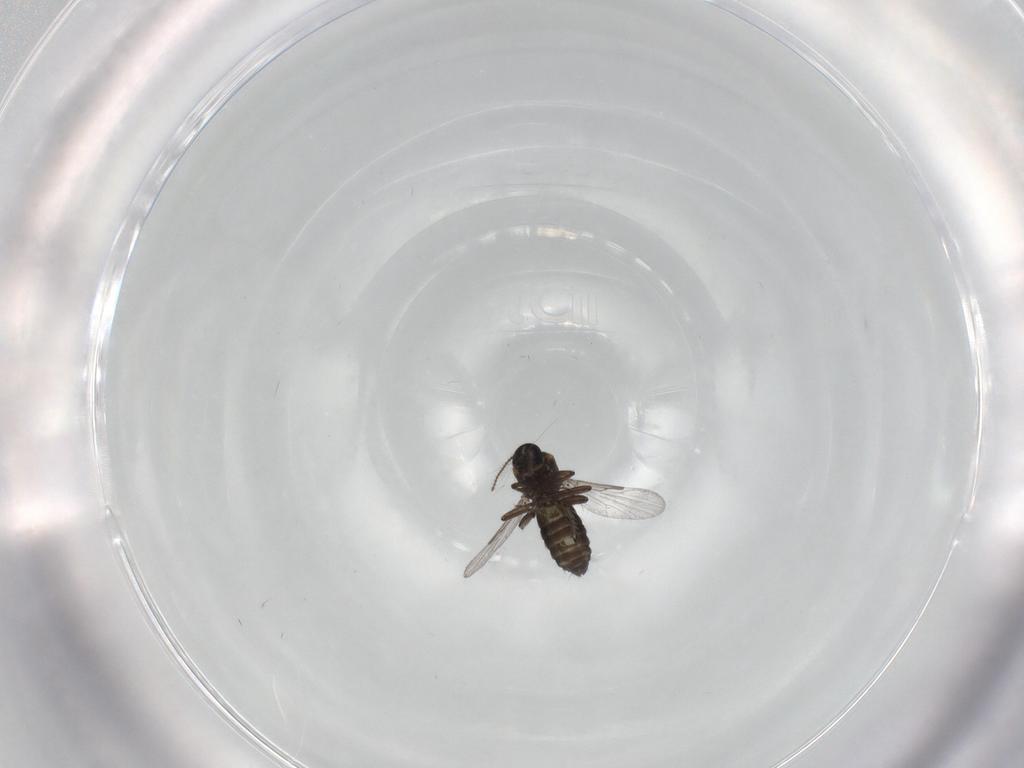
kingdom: Animalia
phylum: Arthropoda
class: Insecta
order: Diptera
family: Ceratopogonidae
